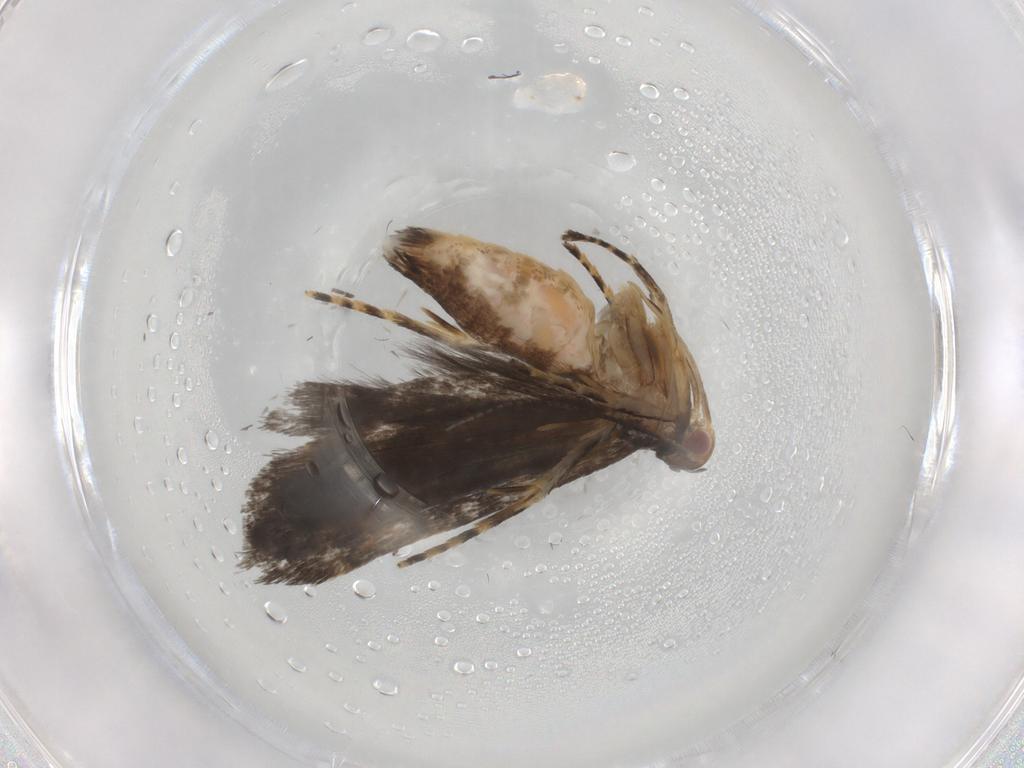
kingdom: Animalia
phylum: Arthropoda
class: Insecta
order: Lepidoptera
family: Gelechiidae
